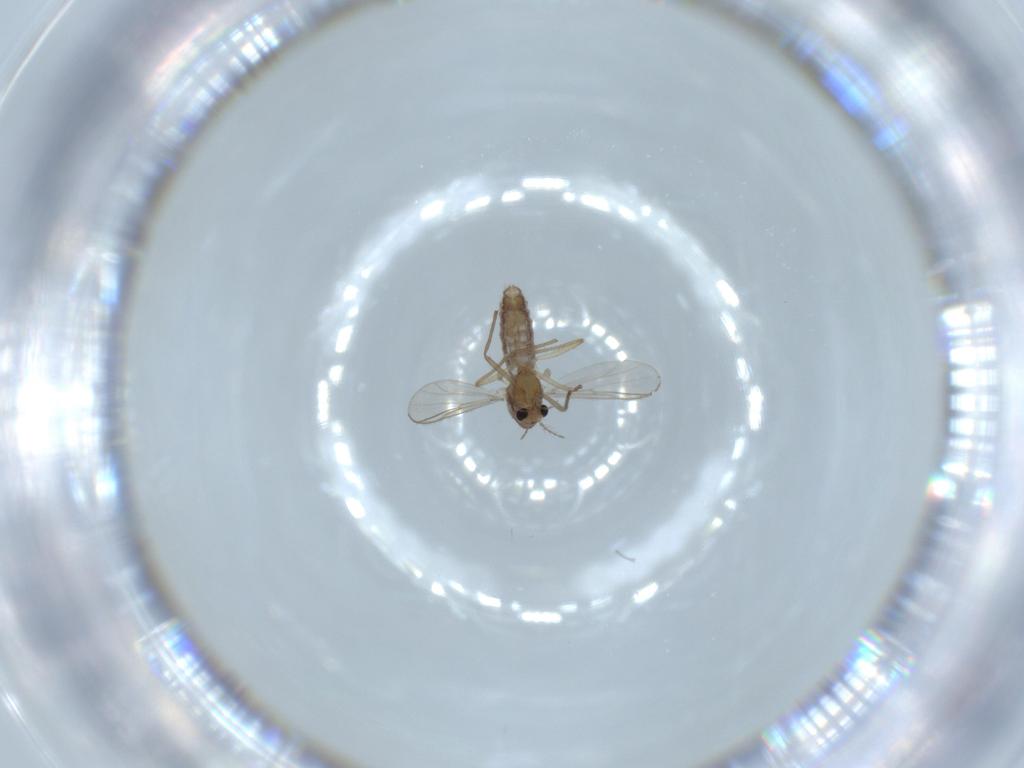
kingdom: Animalia
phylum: Arthropoda
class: Insecta
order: Diptera
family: Chironomidae
